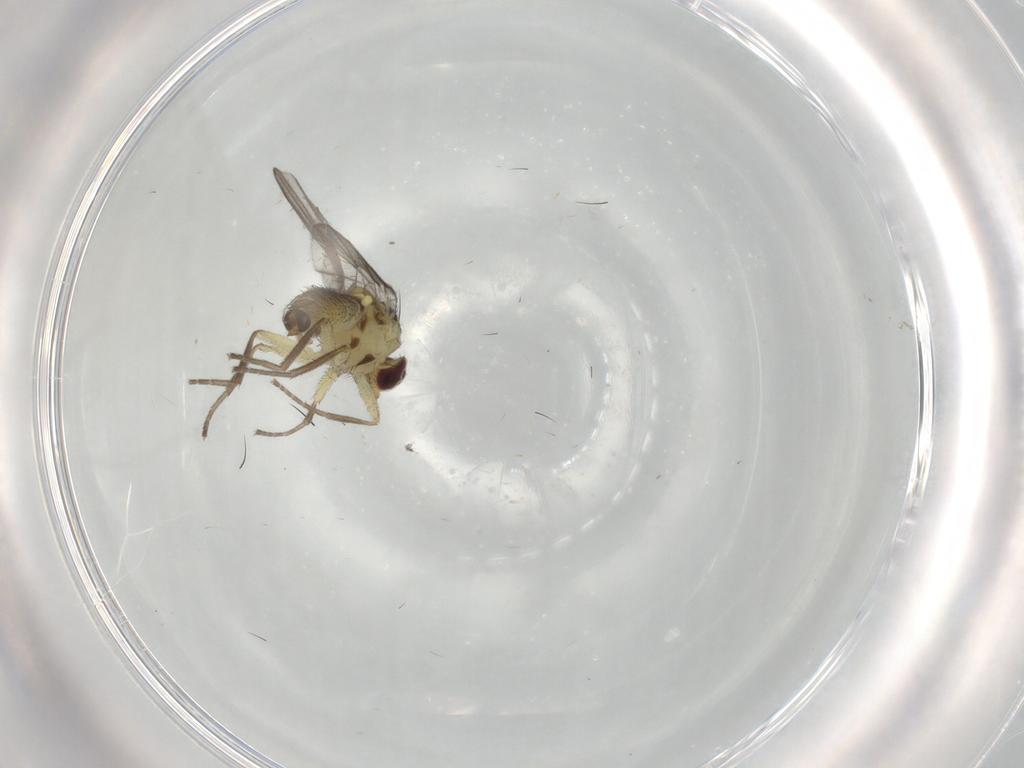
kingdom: Animalia
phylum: Arthropoda
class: Insecta
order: Diptera
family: Agromyzidae
